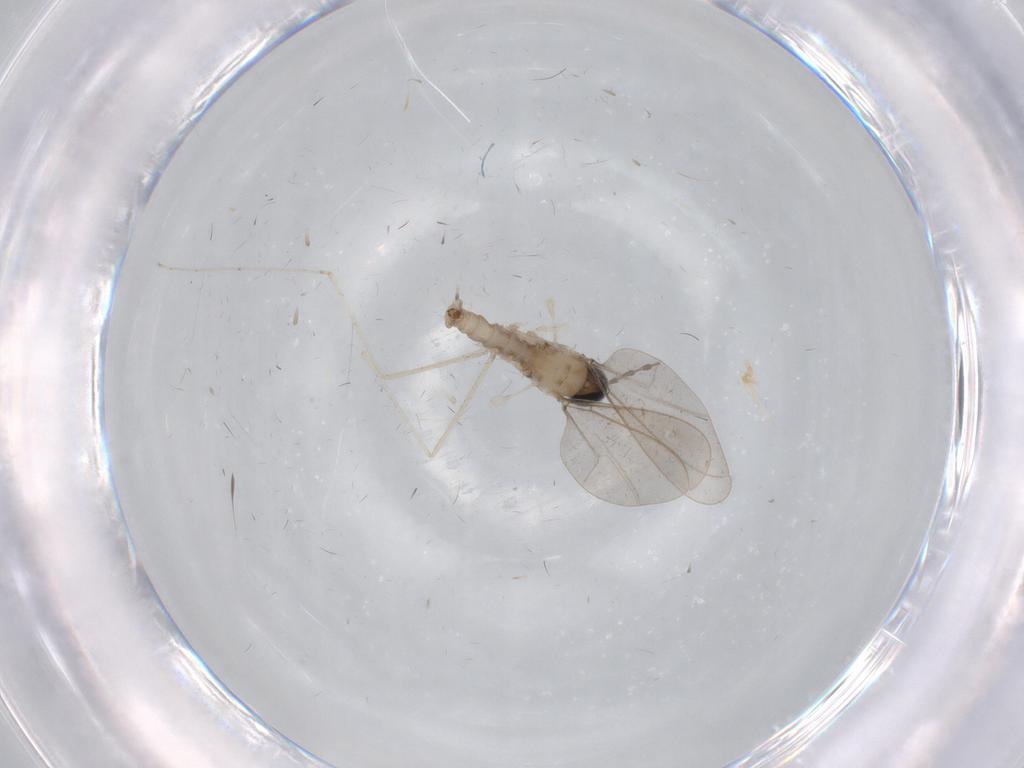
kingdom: Animalia
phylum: Arthropoda
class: Insecta
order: Diptera
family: Cecidomyiidae
